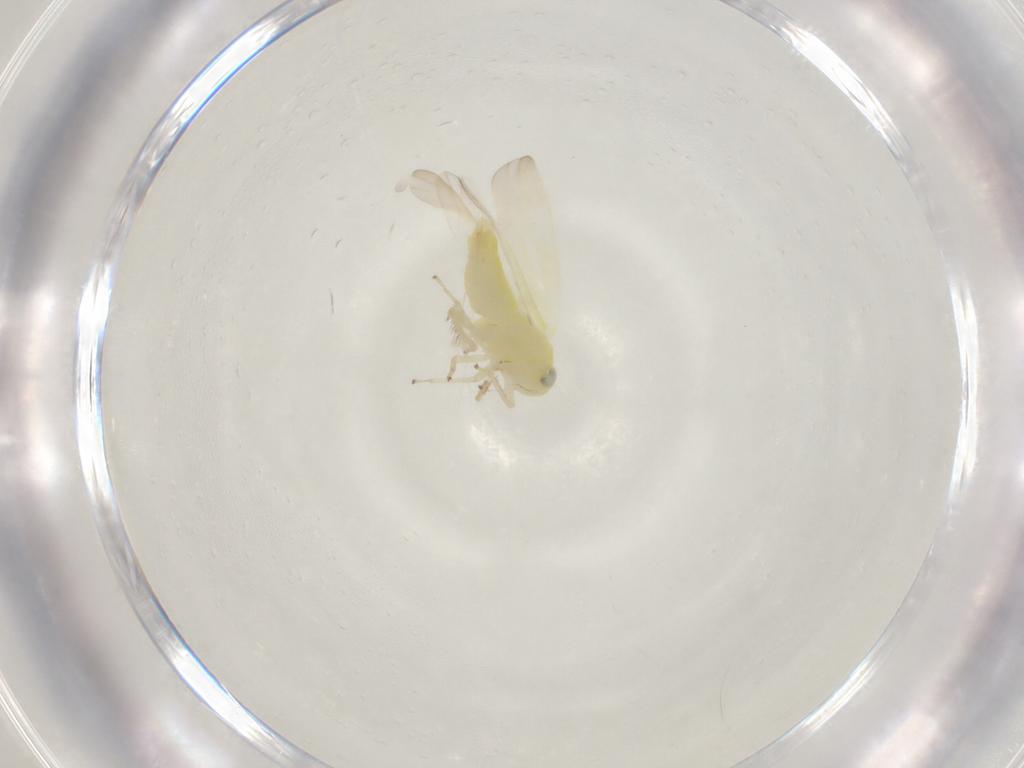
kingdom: Animalia
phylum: Arthropoda
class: Insecta
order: Hemiptera
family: Cicadellidae
